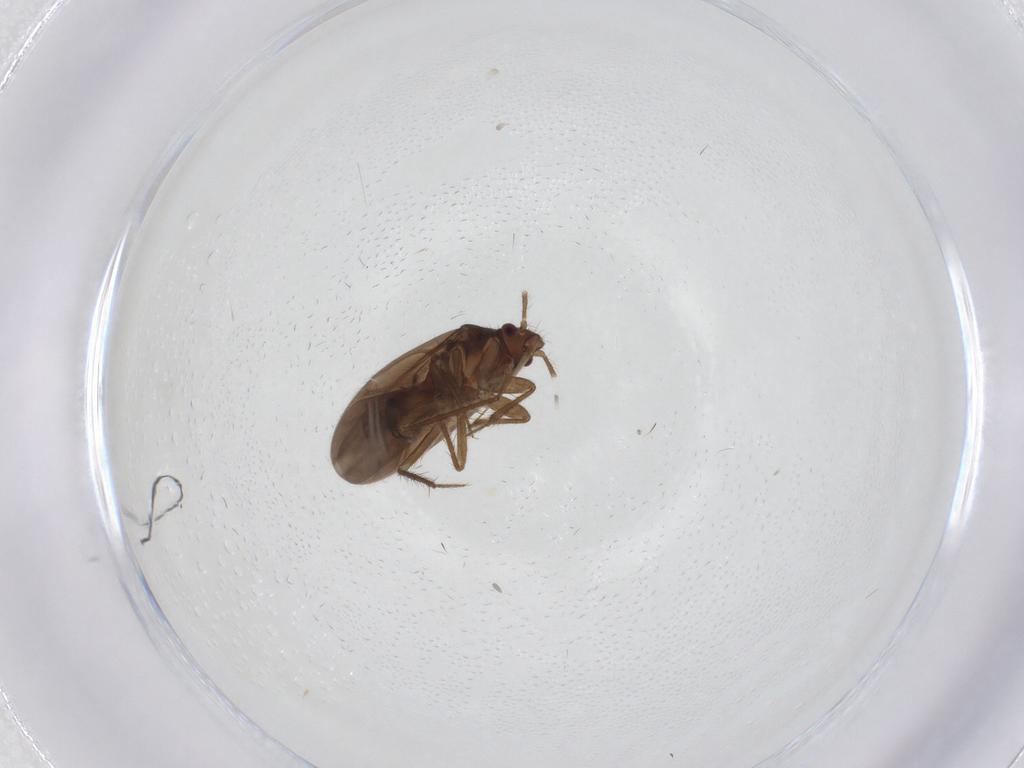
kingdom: Animalia
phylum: Arthropoda
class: Insecta
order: Hemiptera
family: Ceratocombidae
